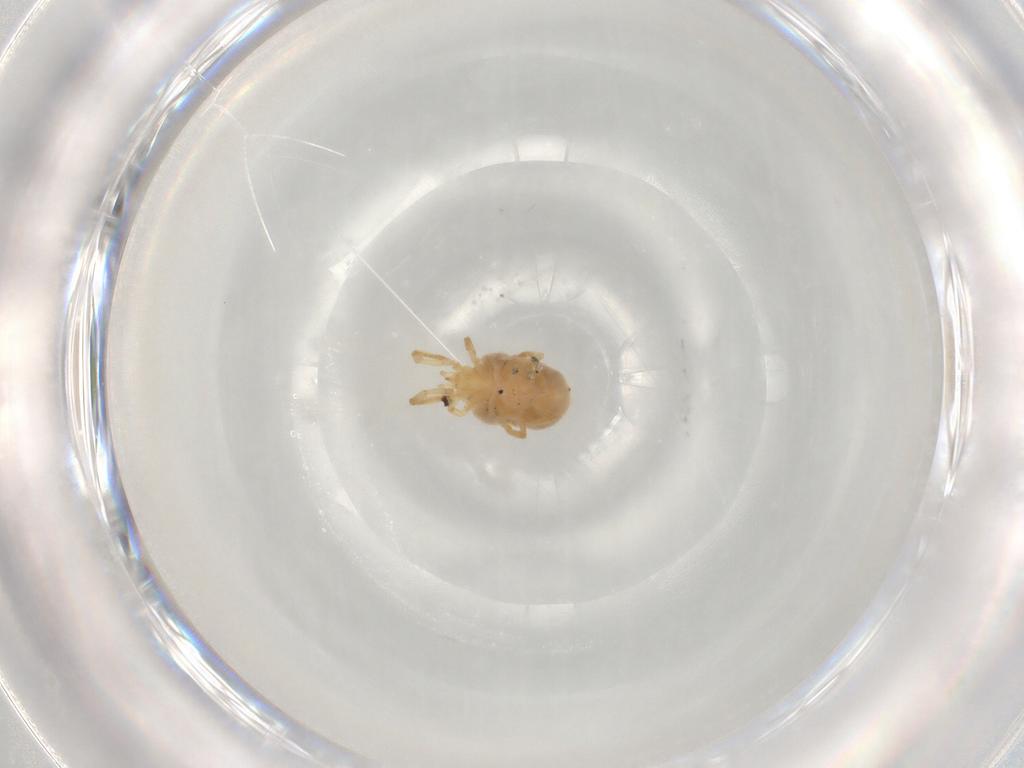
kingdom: Animalia
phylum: Arthropoda
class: Arachnida
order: Trombidiformes
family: Erythraeidae
